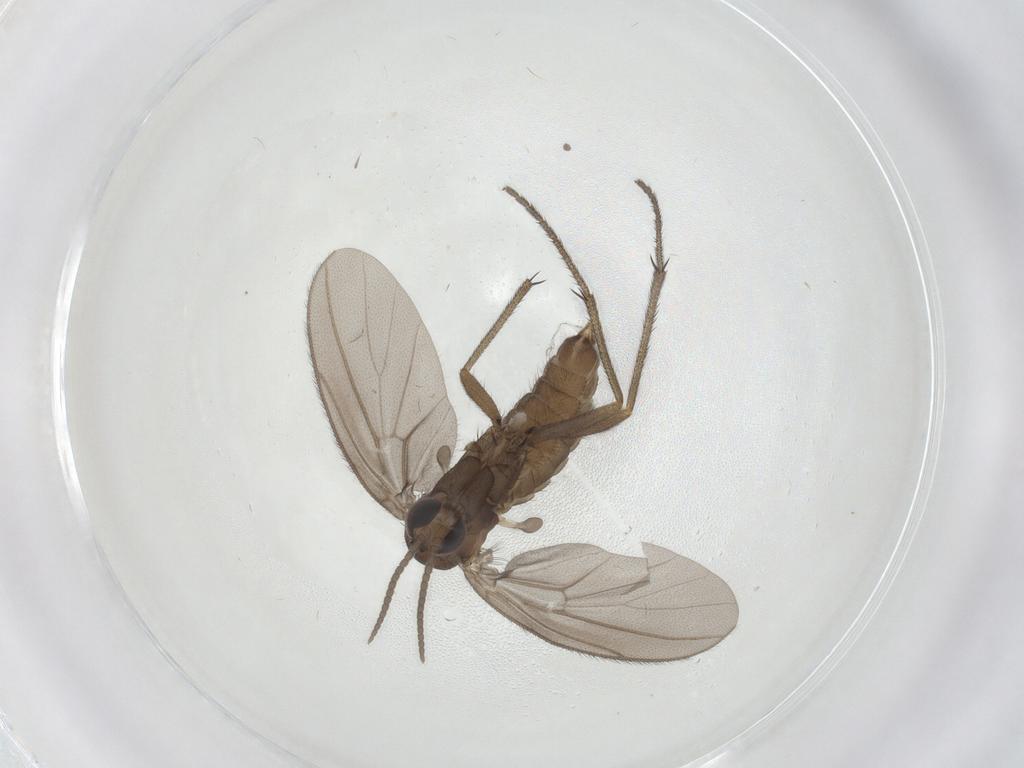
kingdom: Animalia
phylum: Arthropoda
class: Insecta
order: Diptera
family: Diadocidiidae
